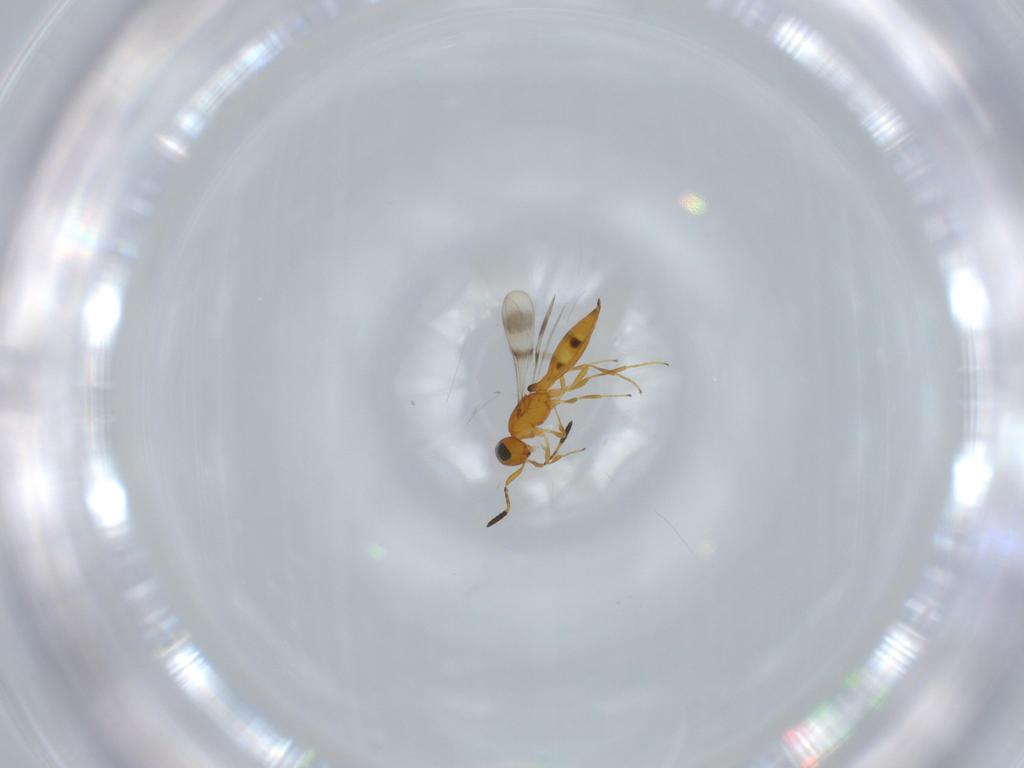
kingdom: Animalia
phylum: Arthropoda
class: Insecta
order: Hymenoptera
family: Scelionidae
